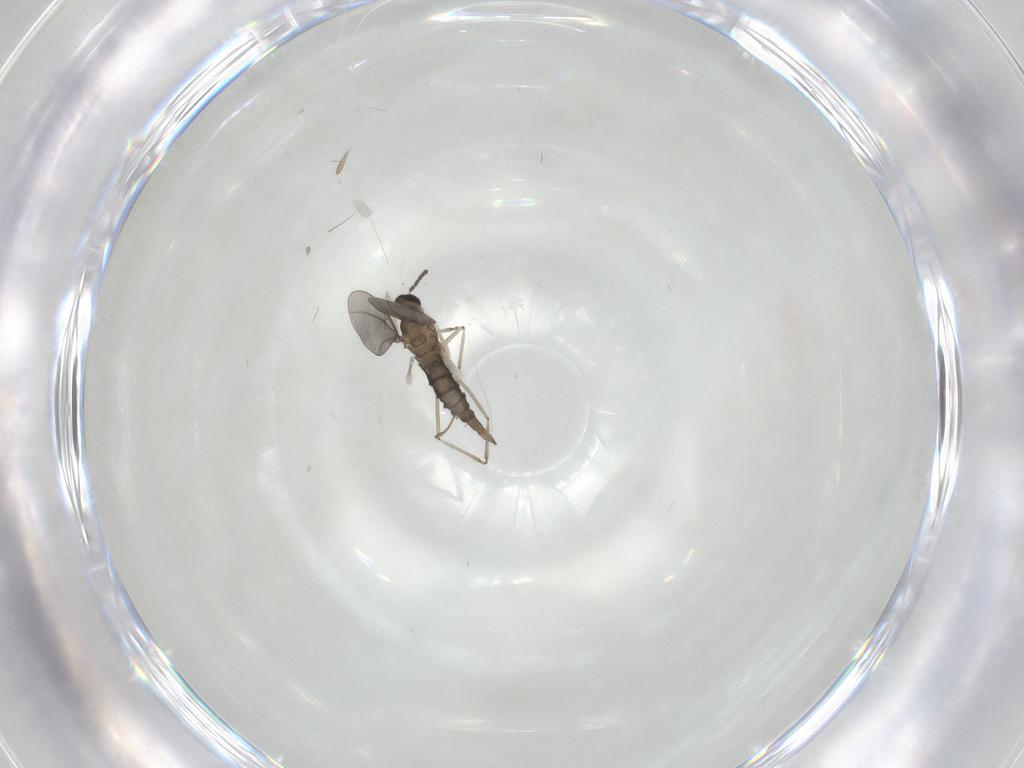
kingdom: Animalia
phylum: Arthropoda
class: Insecta
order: Diptera
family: Cecidomyiidae
